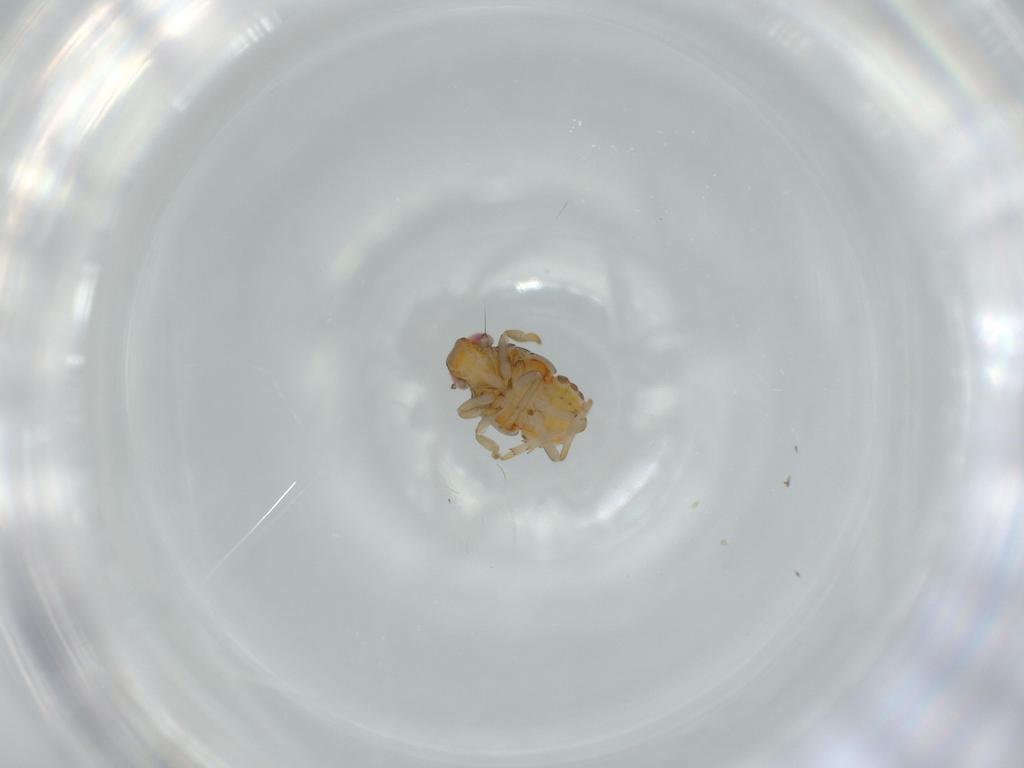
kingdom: Animalia
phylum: Arthropoda
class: Insecta
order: Hemiptera
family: Issidae
